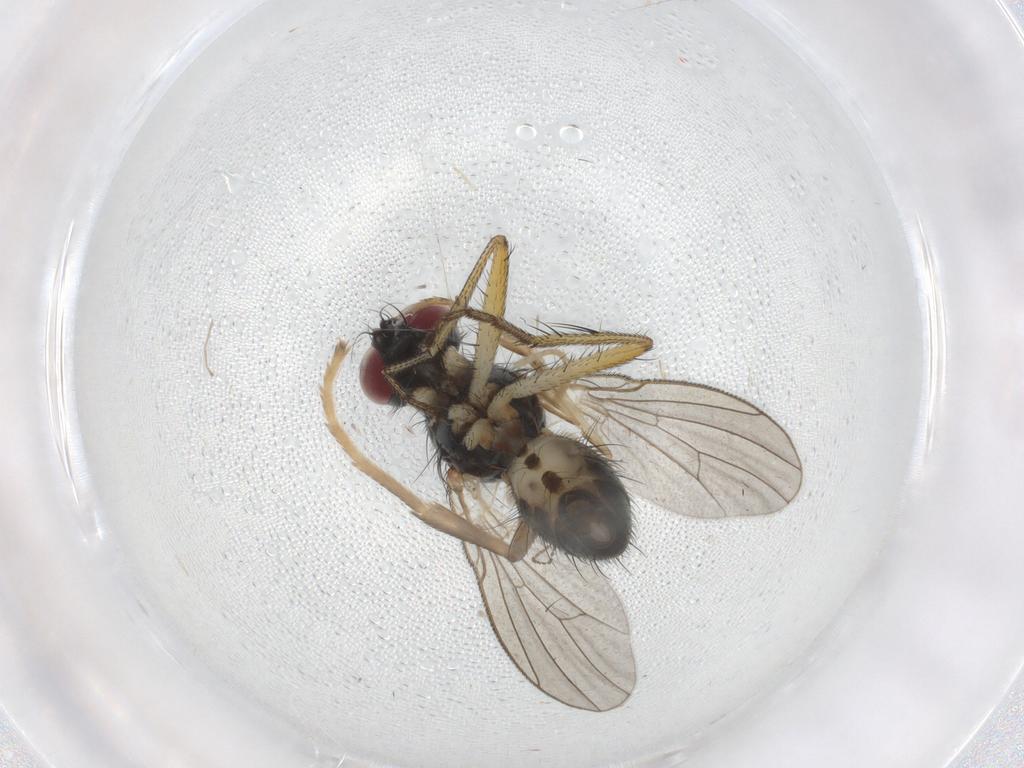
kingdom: Animalia
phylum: Arthropoda
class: Insecta
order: Diptera
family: Muscidae
